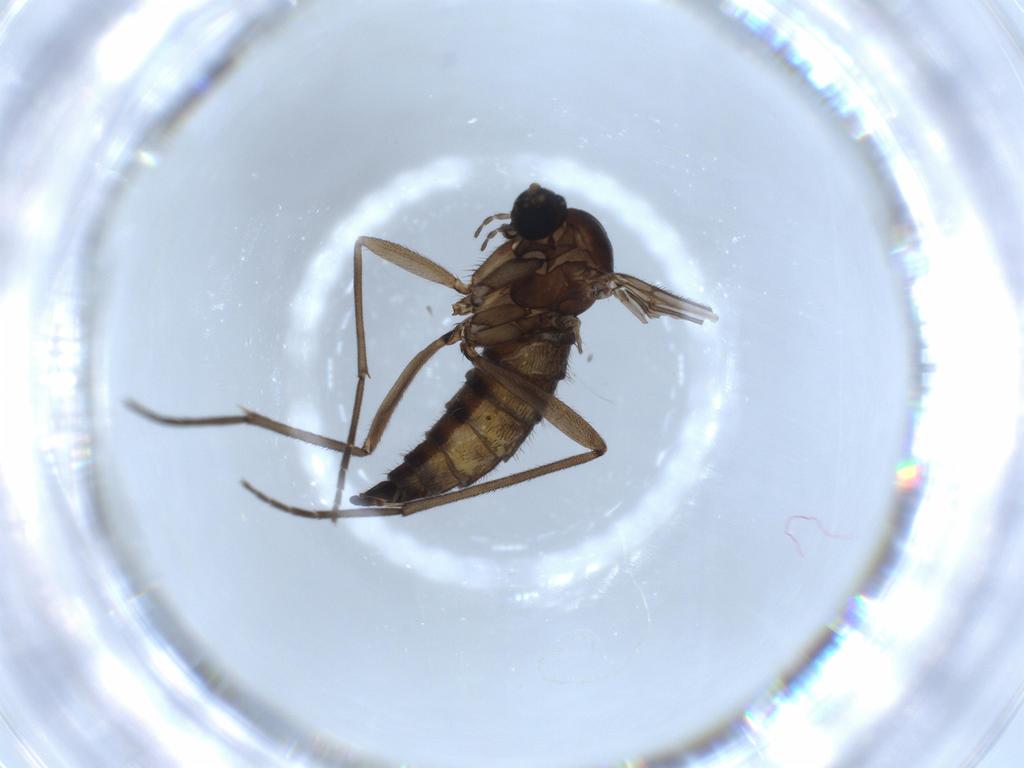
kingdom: Animalia
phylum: Arthropoda
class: Insecta
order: Diptera
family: Sciaridae
